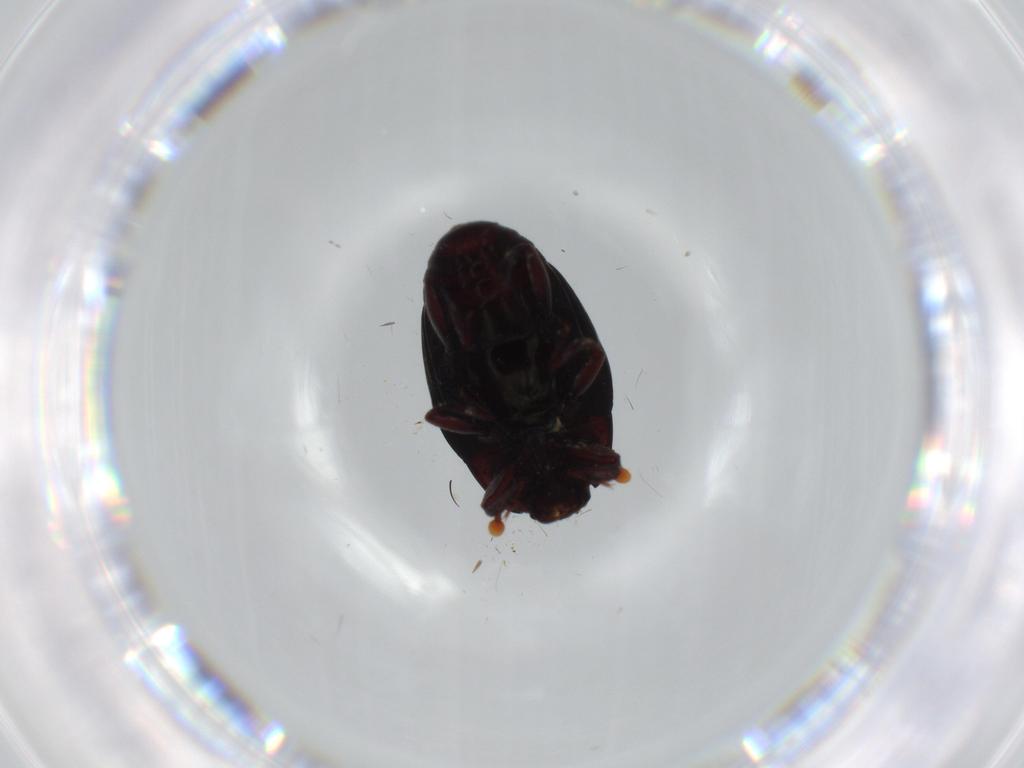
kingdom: Animalia
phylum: Arthropoda
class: Insecta
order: Coleoptera
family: Histeridae
